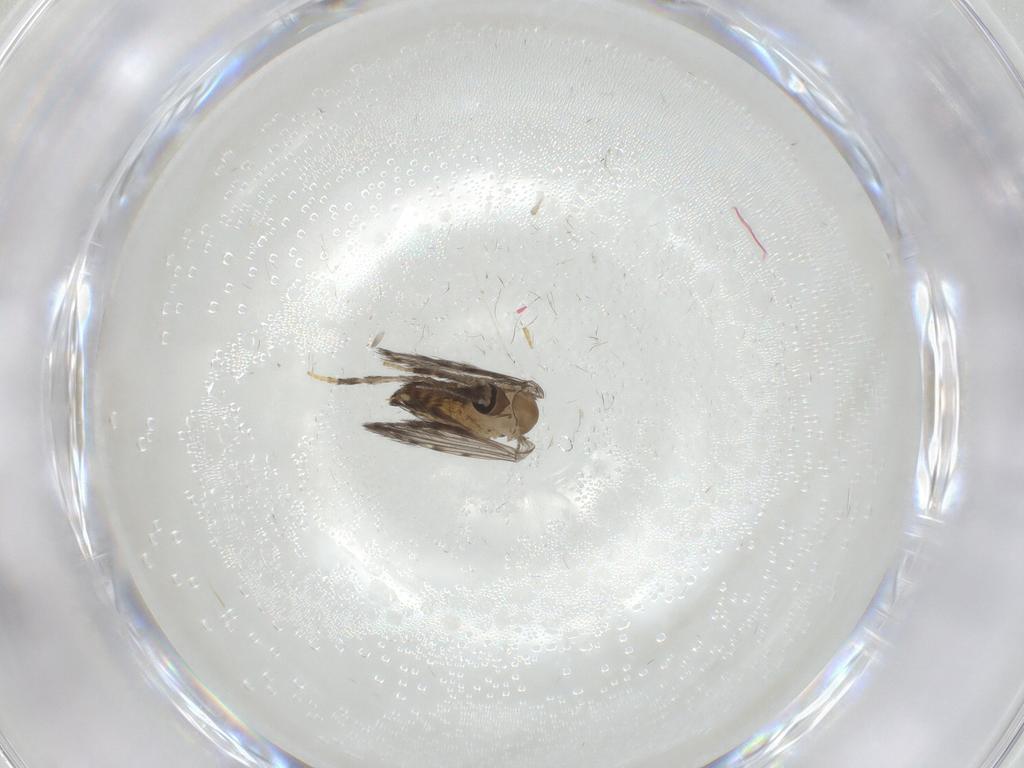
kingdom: Animalia
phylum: Arthropoda
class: Insecta
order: Diptera
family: Psychodidae
